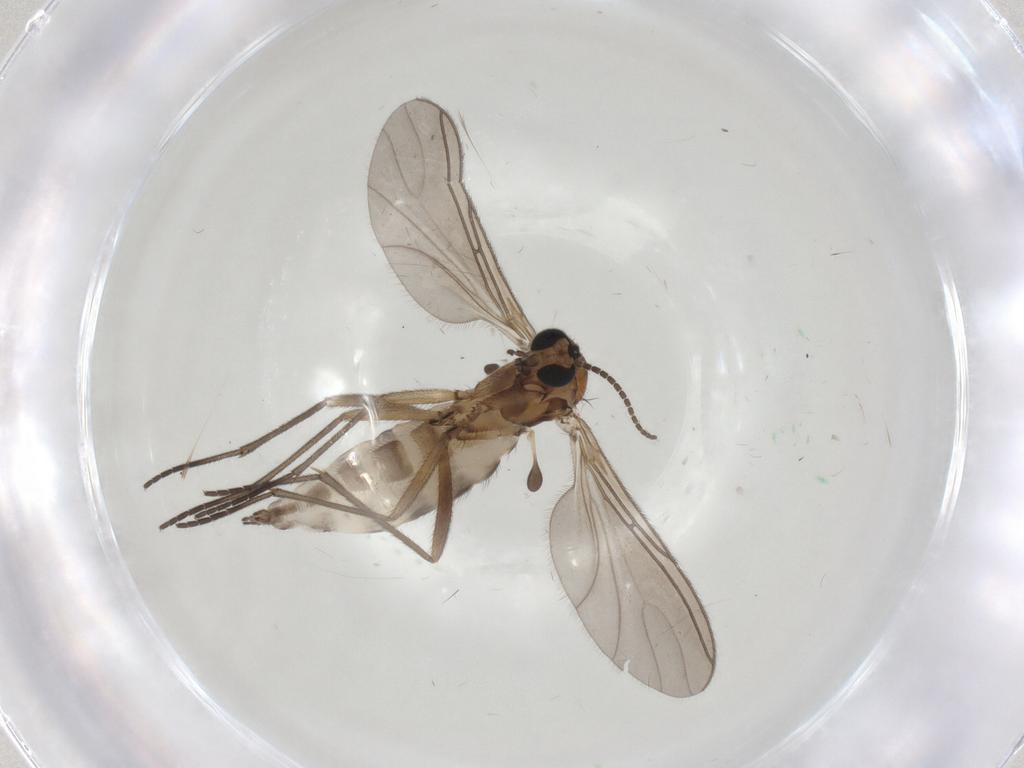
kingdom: Animalia
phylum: Arthropoda
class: Insecta
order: Diptera
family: Sciaridae
